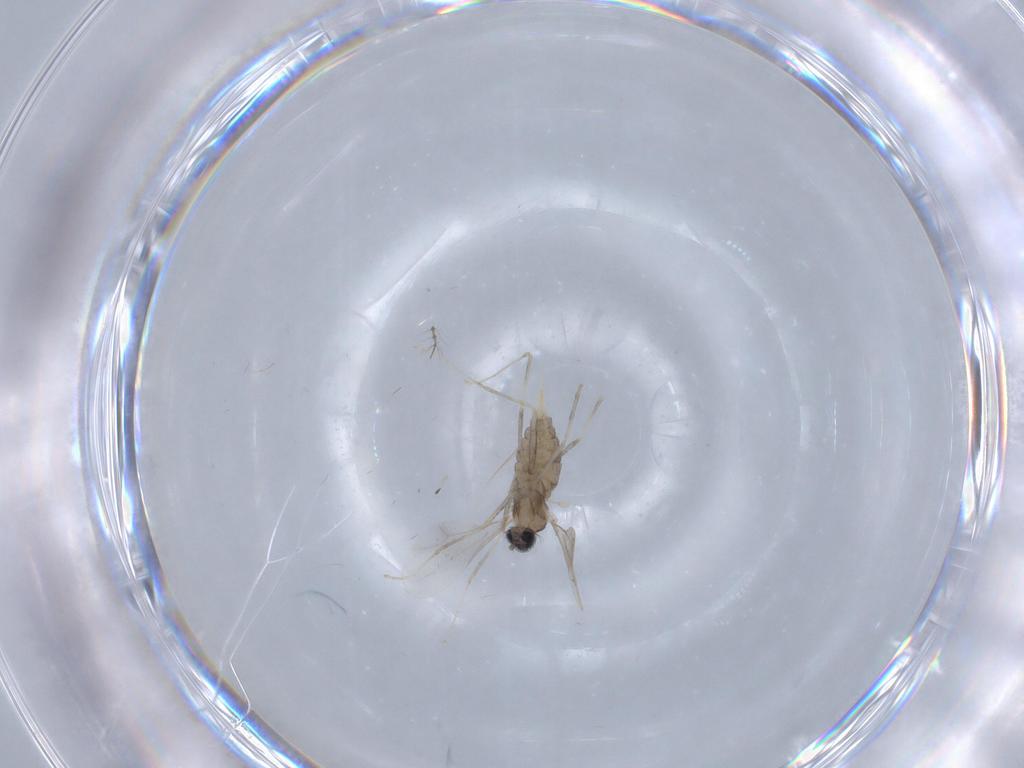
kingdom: Animalia
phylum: Arthropoda
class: Insecta
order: Diptera
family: Cecidomyiidae
